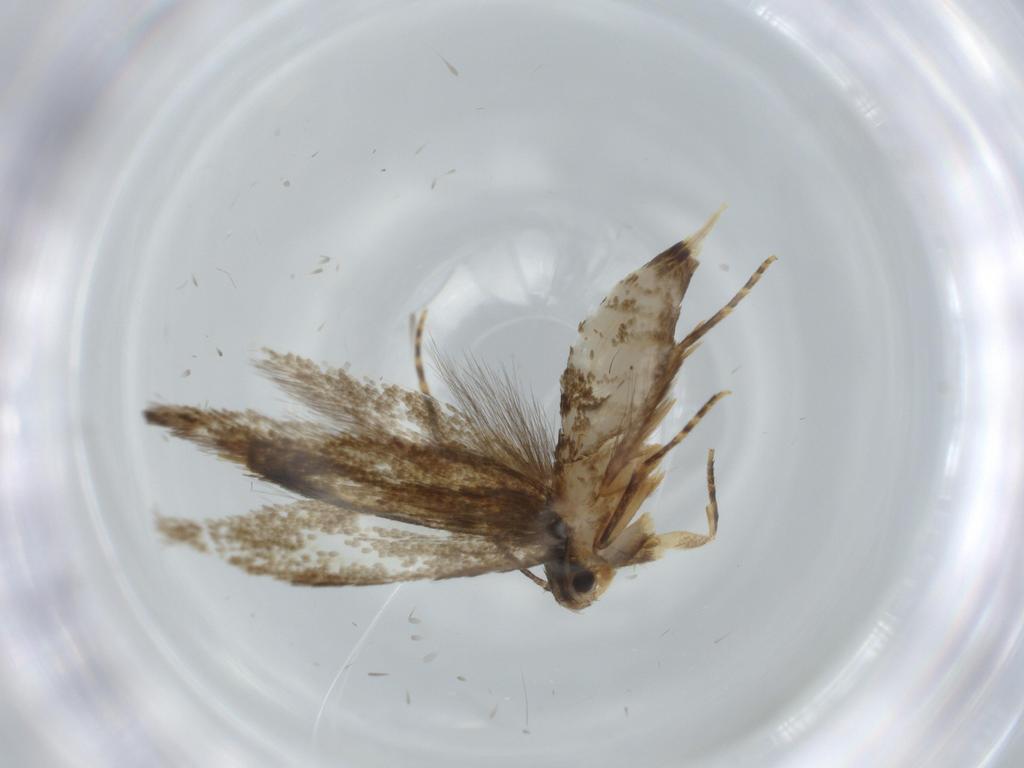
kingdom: Animalia
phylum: Arthropoda
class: Insecta
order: Lepidoptera
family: Tineidae
